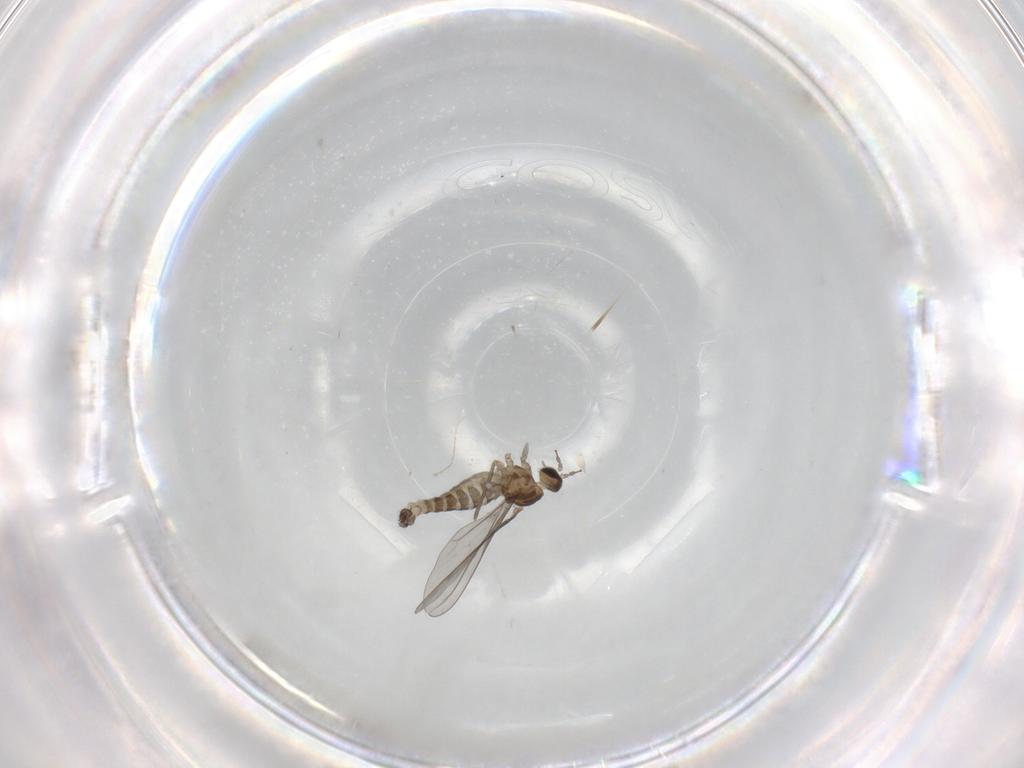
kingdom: Animalia
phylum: Arthropoda
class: Insecta
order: Diptera
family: Cecidomyiidae
